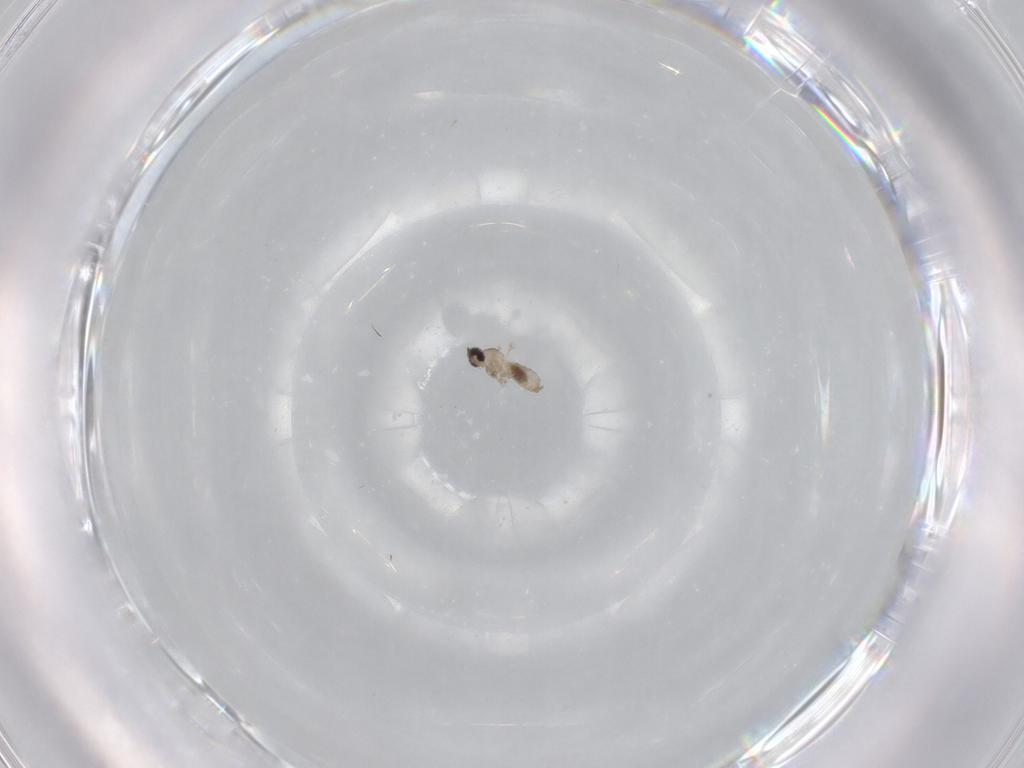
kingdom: Animalia
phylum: Arthropoda
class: Insecta
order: Diptera
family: Cecidomyiidae
